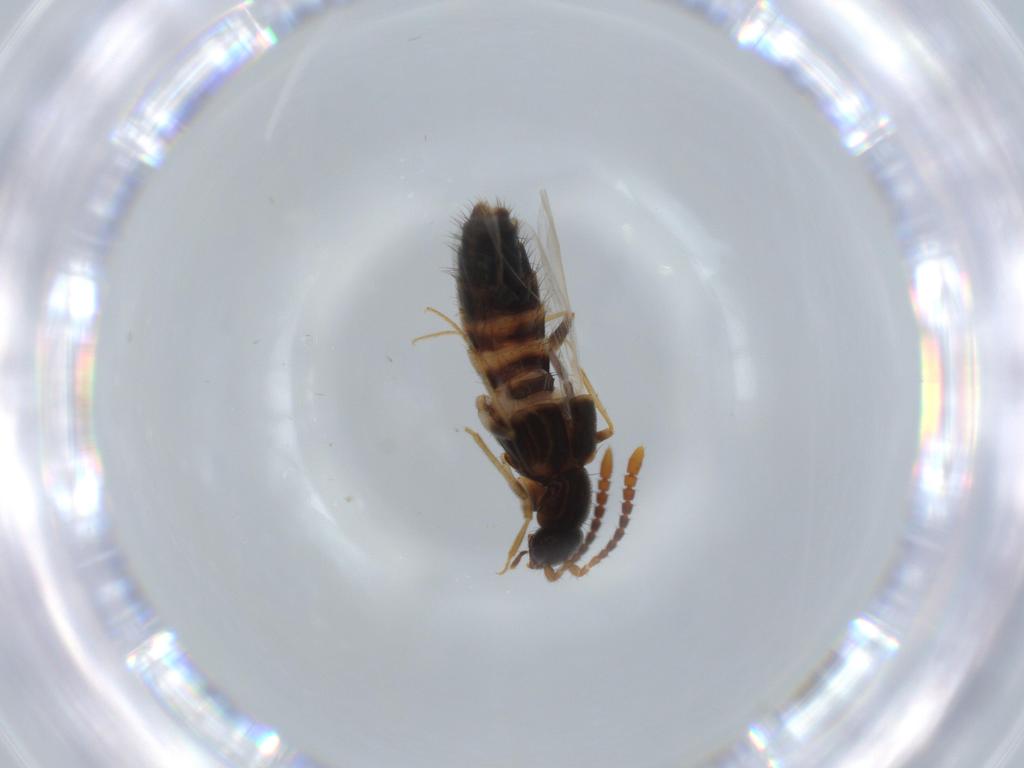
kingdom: Animalia
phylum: Arthropoda
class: Insecta
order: Coleoptera
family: Staphylinidae
